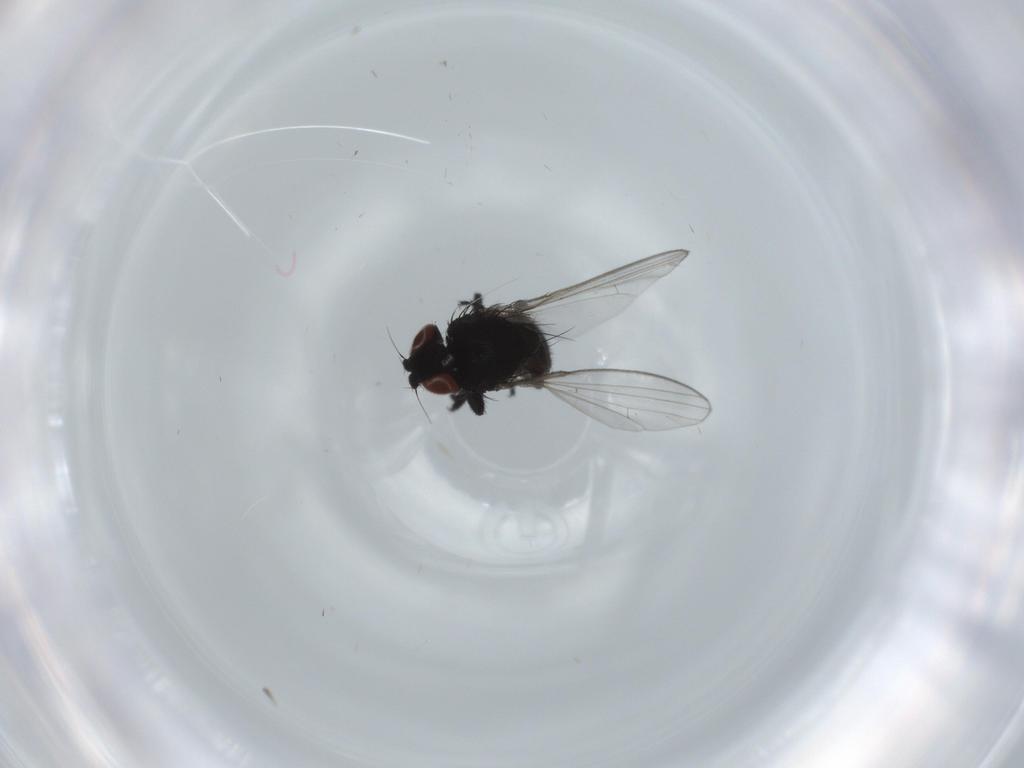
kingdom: Animalia
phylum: Arthropoda
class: Insecta
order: Diptera
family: Milichiidae
